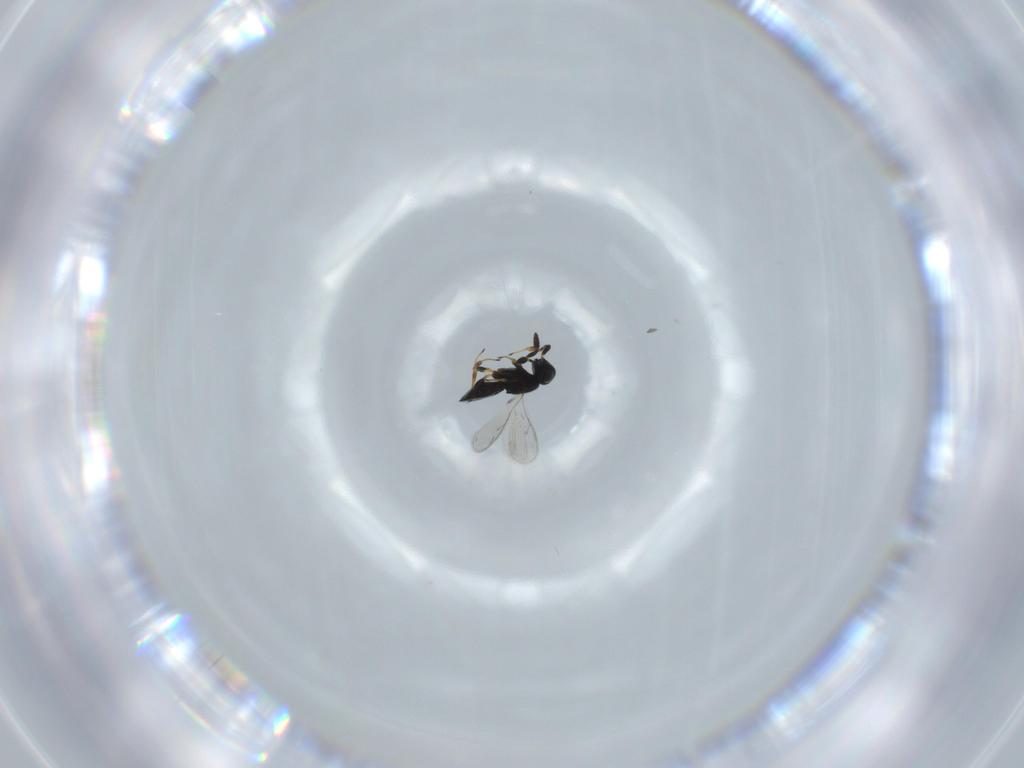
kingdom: Animalia
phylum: Arthropoda
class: Insecta
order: Hymenoptera
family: Scelionidae
